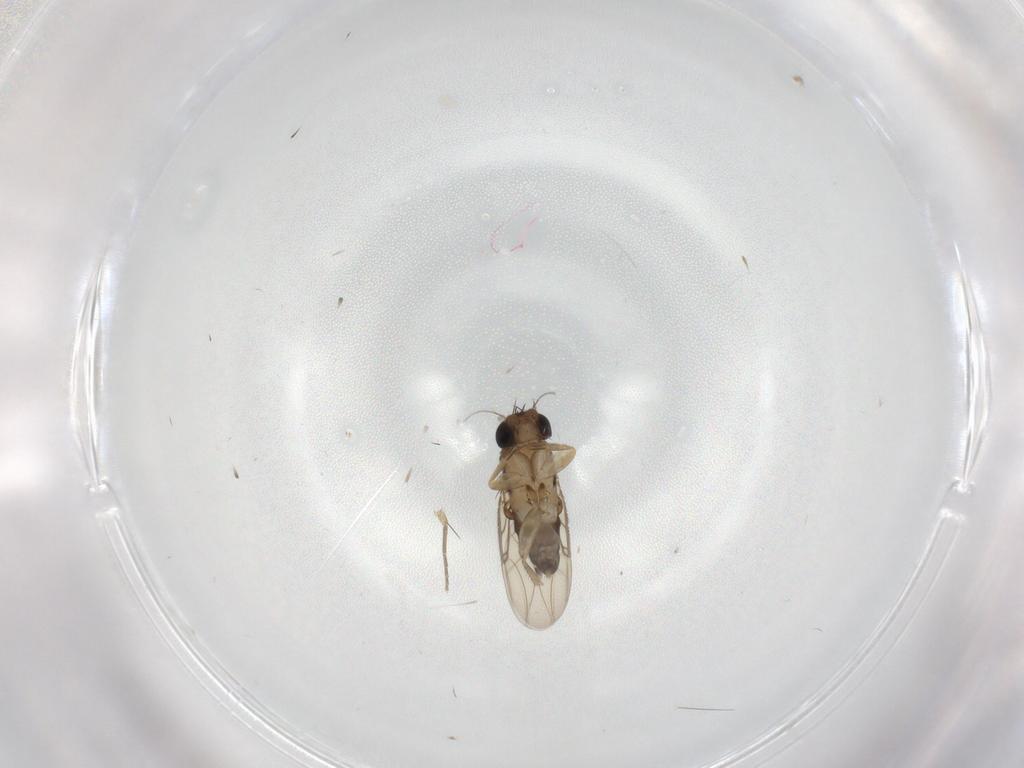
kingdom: Animalia
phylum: Arthropoda
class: Insecta
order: Diptera
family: Phoridae
